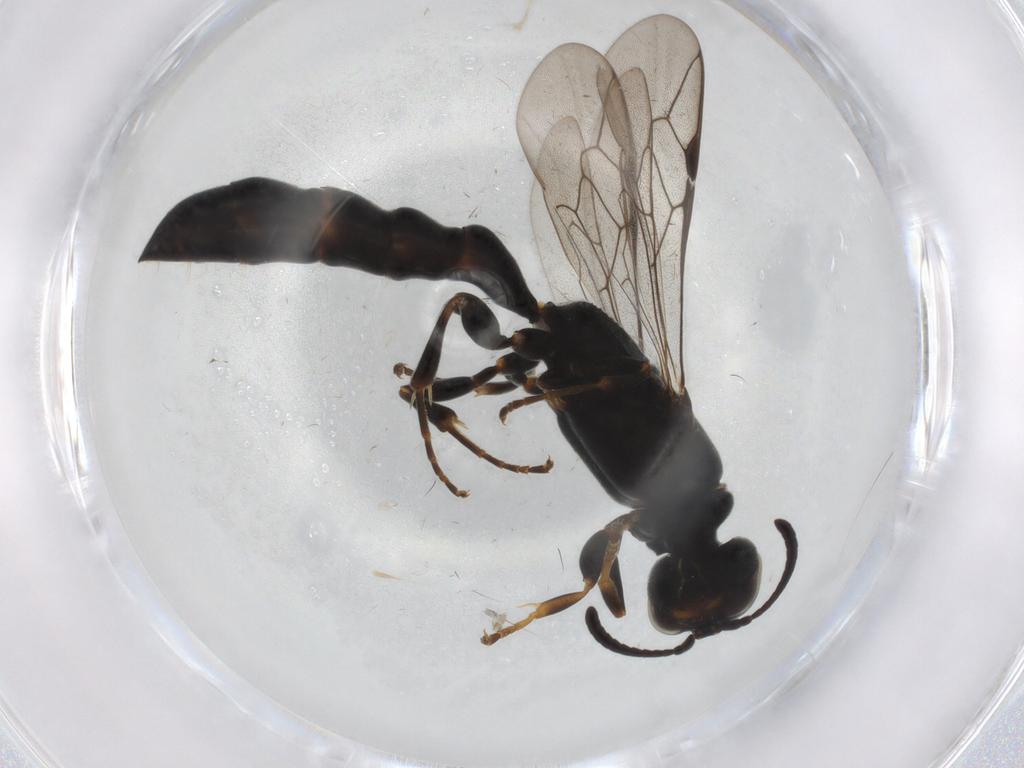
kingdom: Animalia
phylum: Arthropoda
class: Insecta
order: Hymenoptera
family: Crabronidae
